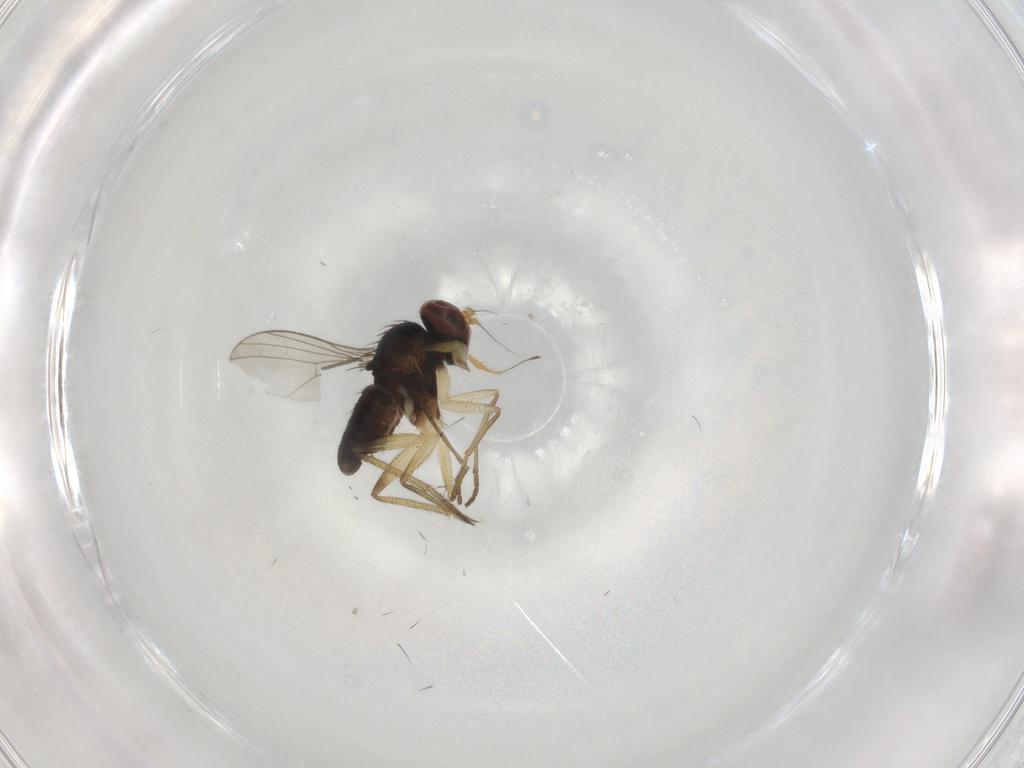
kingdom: Animalia
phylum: Arthropoda
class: Insecta
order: Diptera
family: Dolichopodidae
